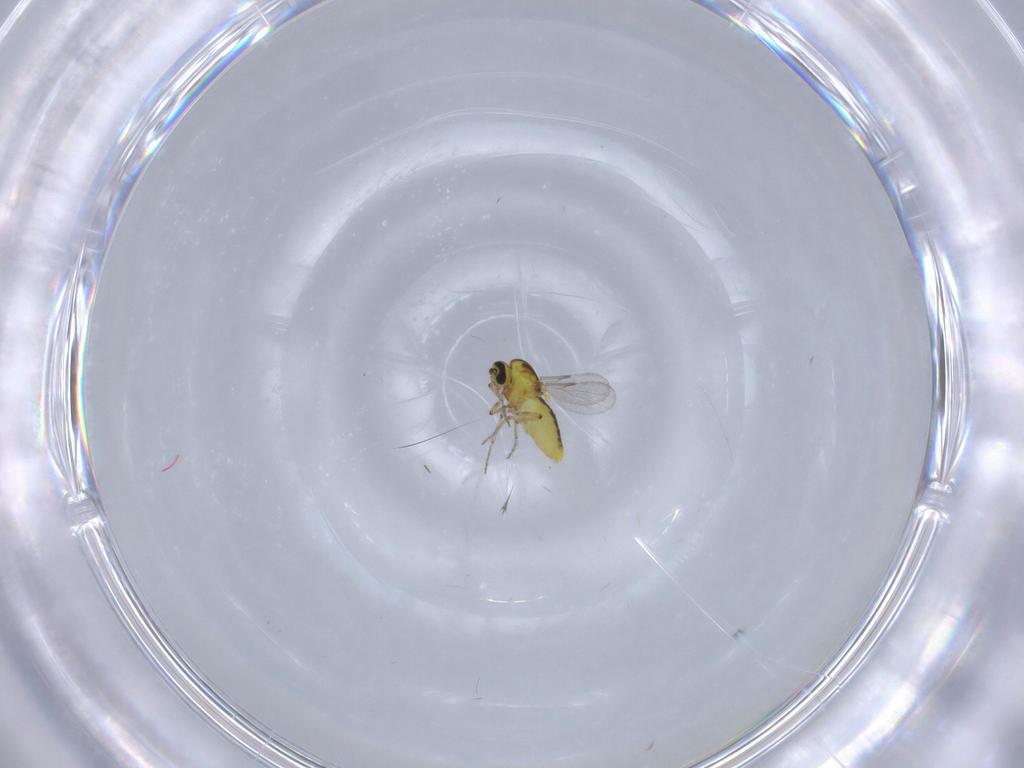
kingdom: Animalia
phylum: Arthropoda
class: Insecta
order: Diptera
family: Ceratopogonidae
